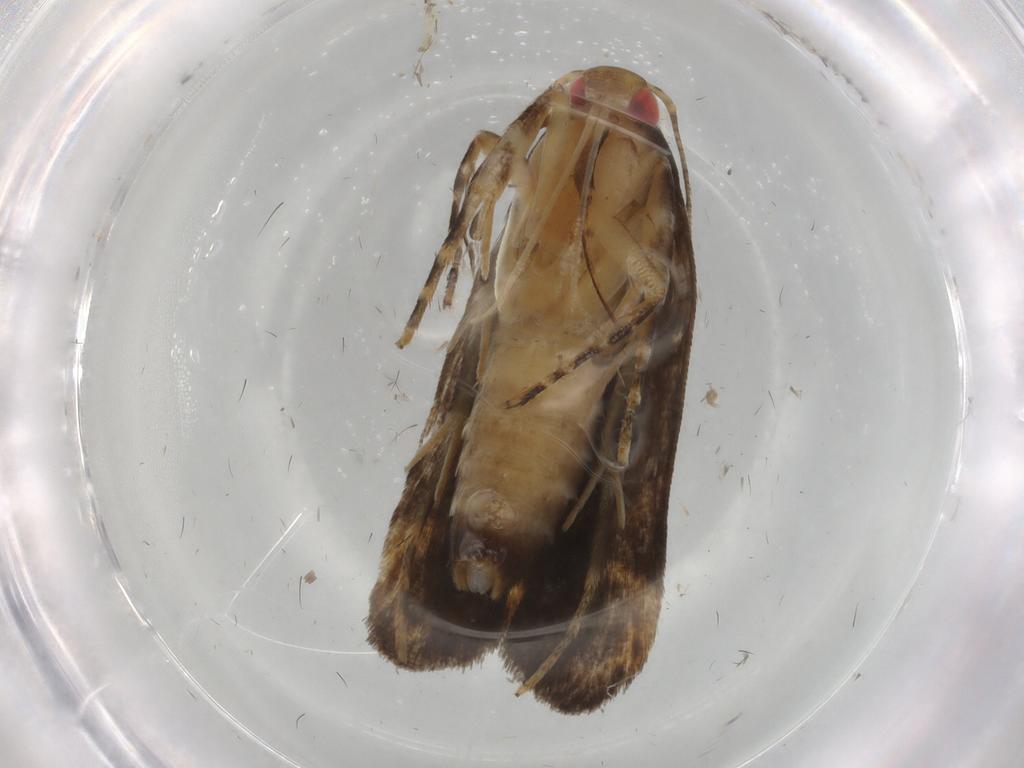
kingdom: Animalia
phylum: Arthropoda
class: Insecta
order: Lepidoptera
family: Elachistidae
